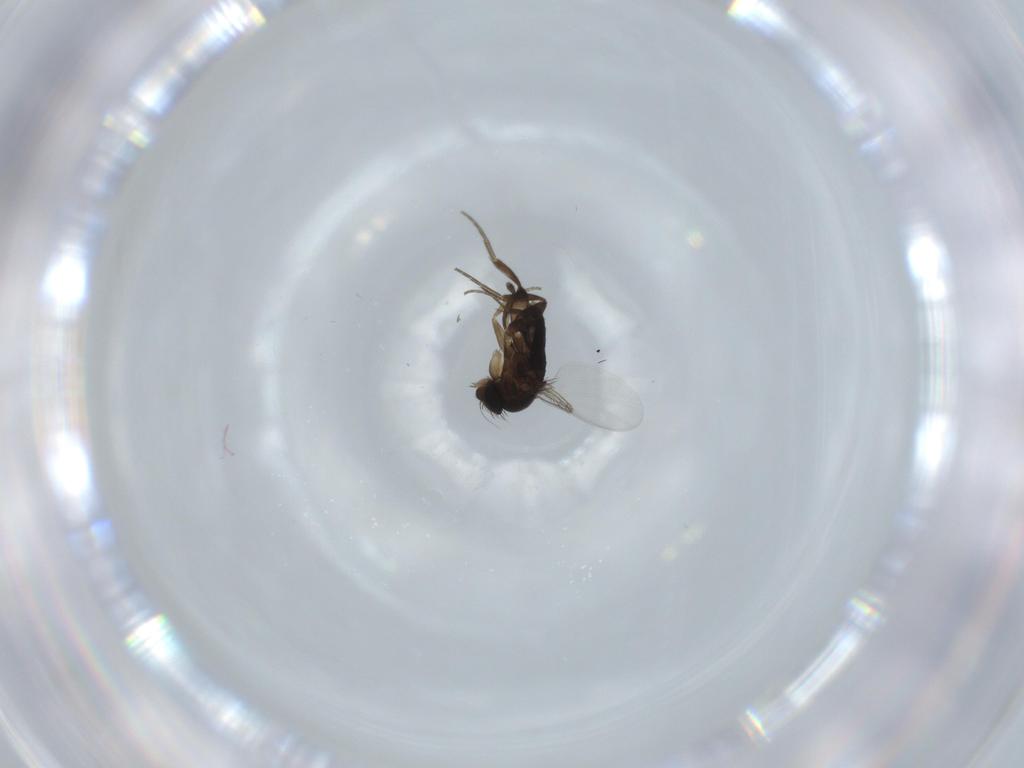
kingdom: Animalia
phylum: Arthropoda
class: Insecta
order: Diptera
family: Phoridae
